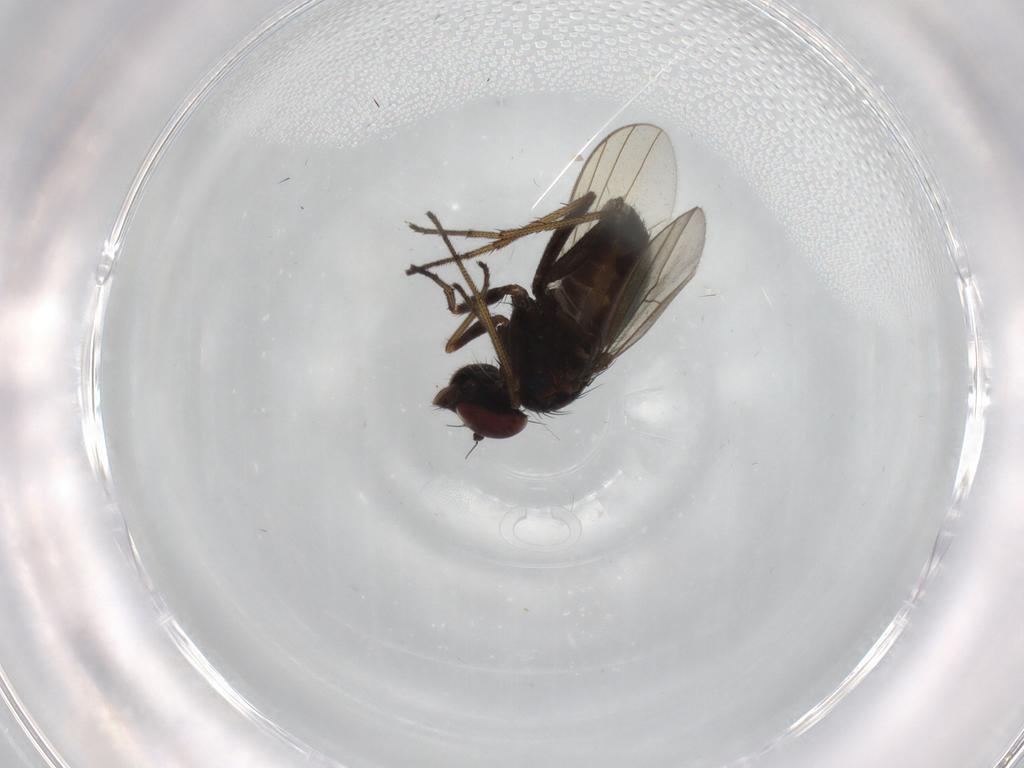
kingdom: Animalia
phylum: Arthropoda
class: Insecta
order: Diptera
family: Dolichopodidae
